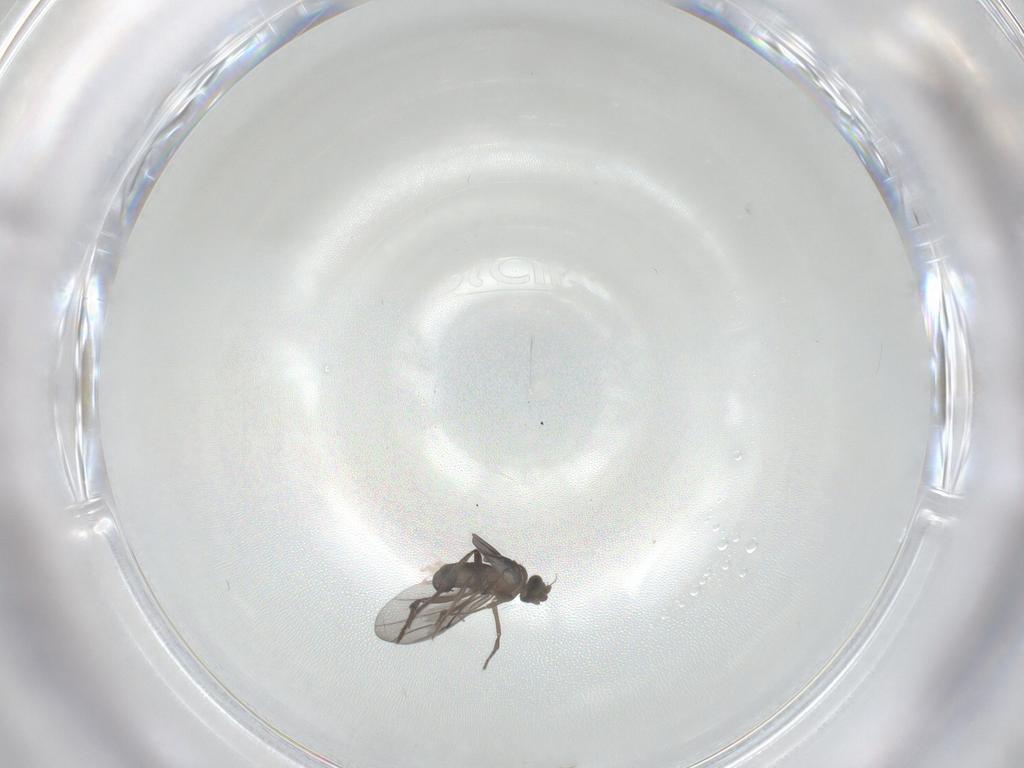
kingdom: Animalia
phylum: Arthropoda
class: Insecta
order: Diptera
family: Phoridae
